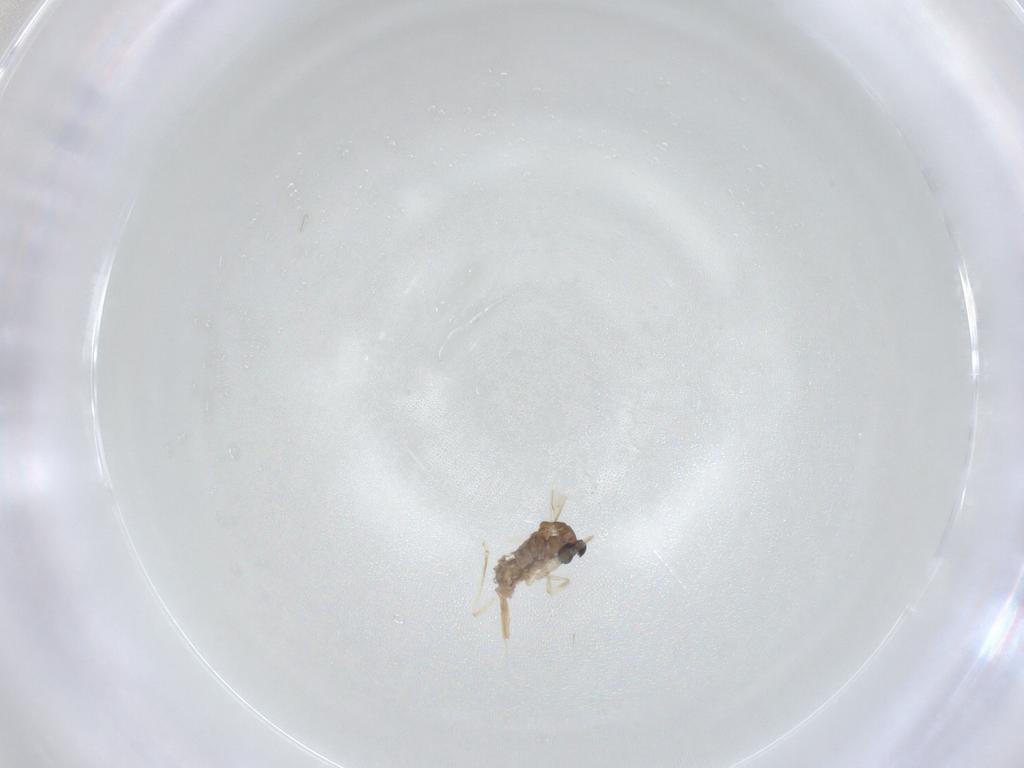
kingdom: Animalia
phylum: Arthropoda
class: Insecta
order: Diptera
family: Cecidomyiidae
